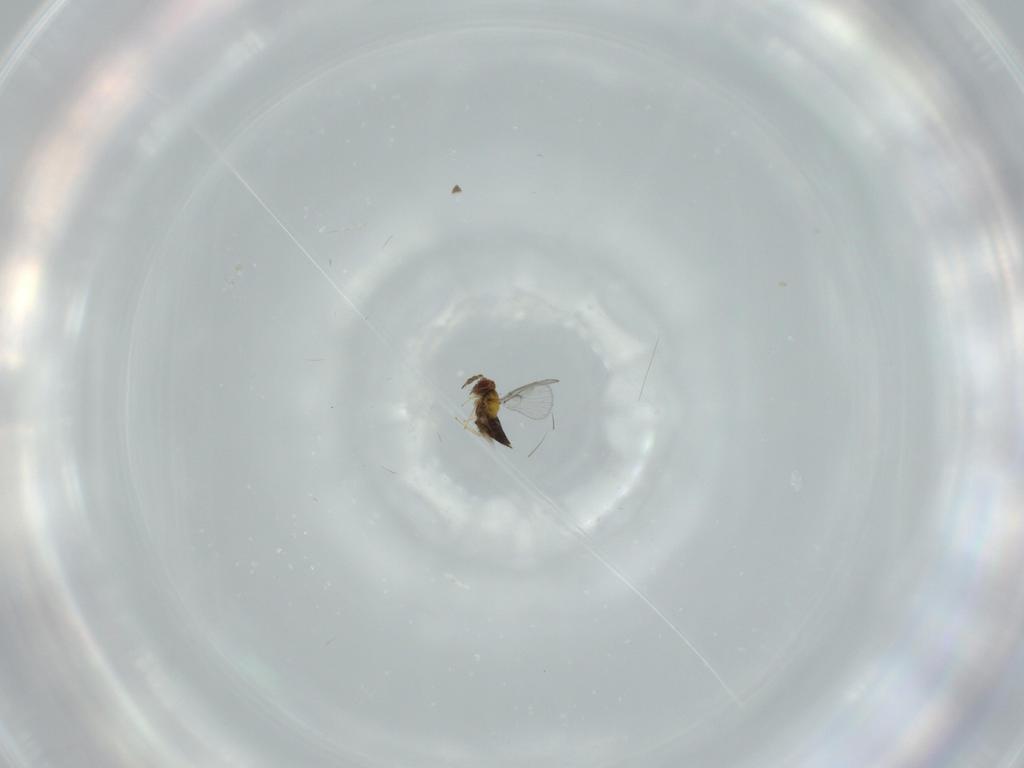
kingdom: Animalia
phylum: Arthropoda
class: Insecta
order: Hymenoptera
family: Trichogrammatidae
